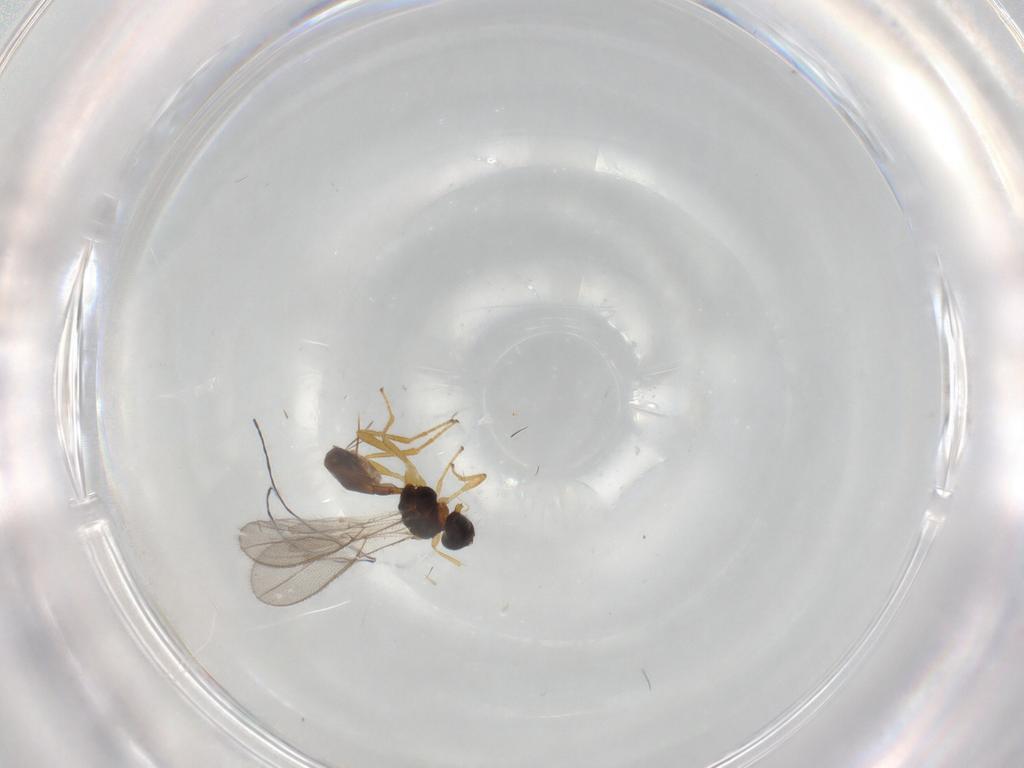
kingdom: Animalia
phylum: Arthropoda
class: Insecta
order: Hymenoptera
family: Braconidae
